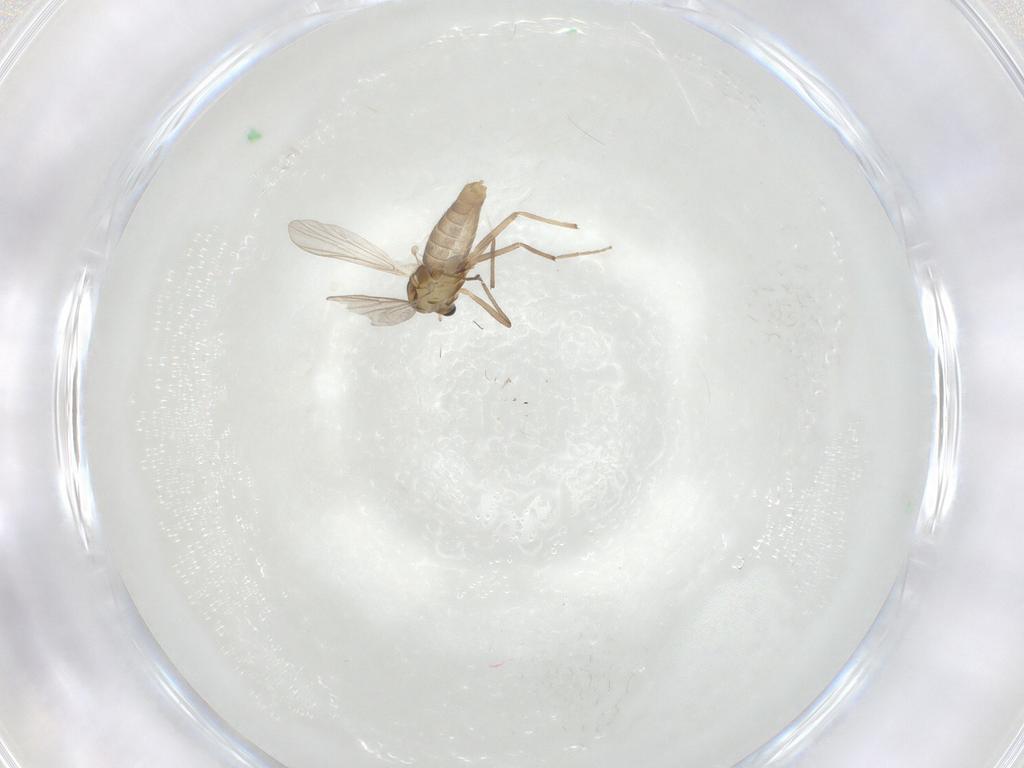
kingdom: Animalia
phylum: Arthropoda
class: Insecta
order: Diptera
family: Chironomidae
